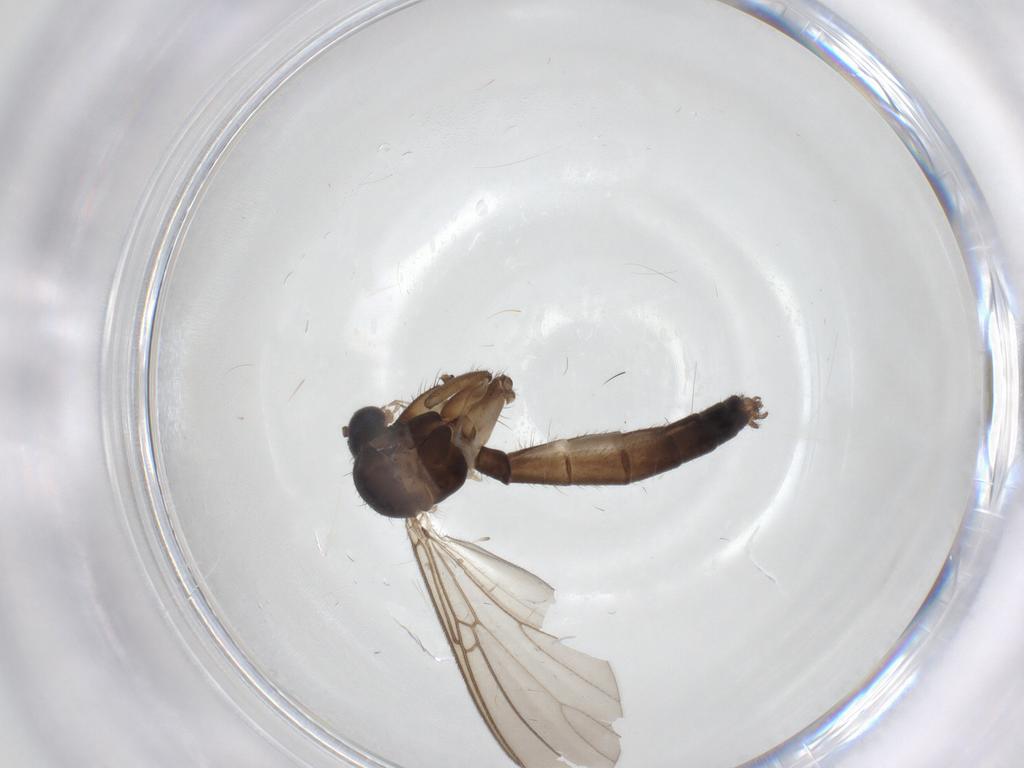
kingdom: Animalia
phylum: Arthropoda
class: Insecta
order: Diptera
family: Mycetophilidae
